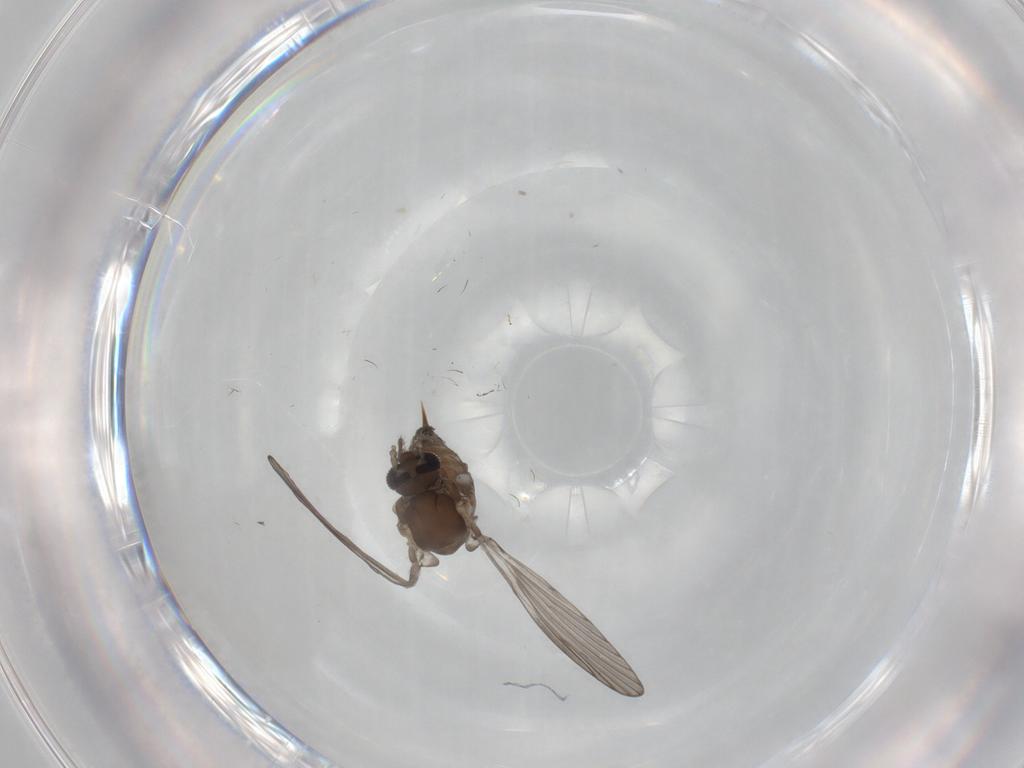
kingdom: Animalia
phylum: Arthropoda
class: Insecta
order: Diptera
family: Psychodidae
